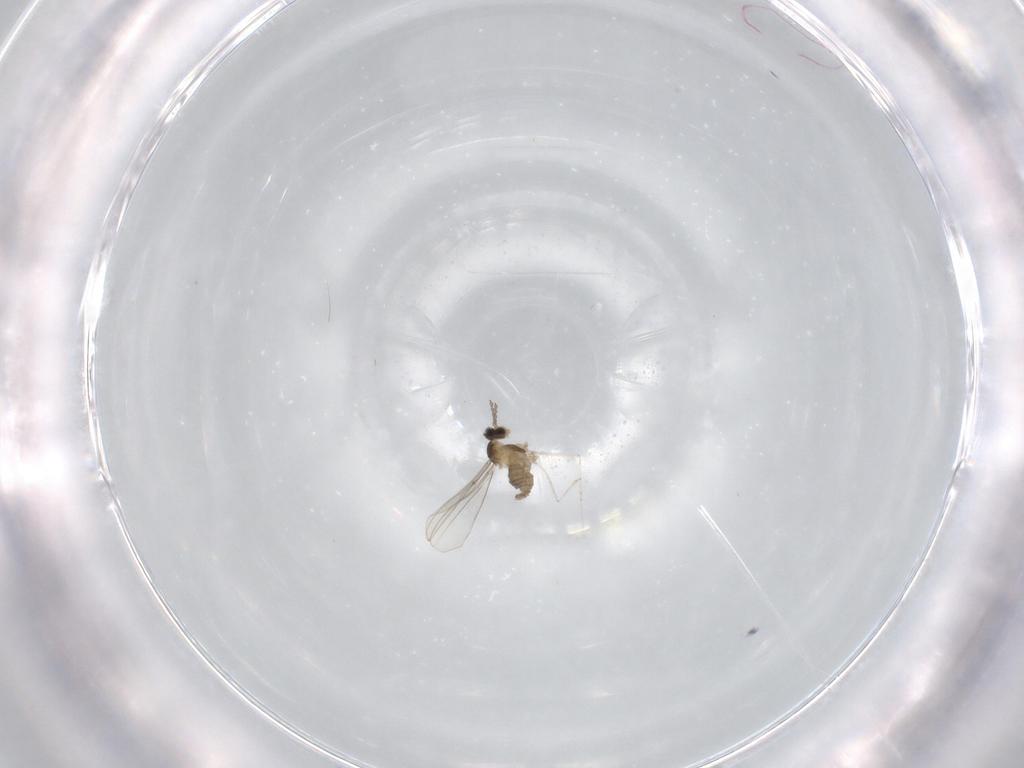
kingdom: Animalia
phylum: Arthropoda
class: Insecta
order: Diptera
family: Cecidomyiidae
